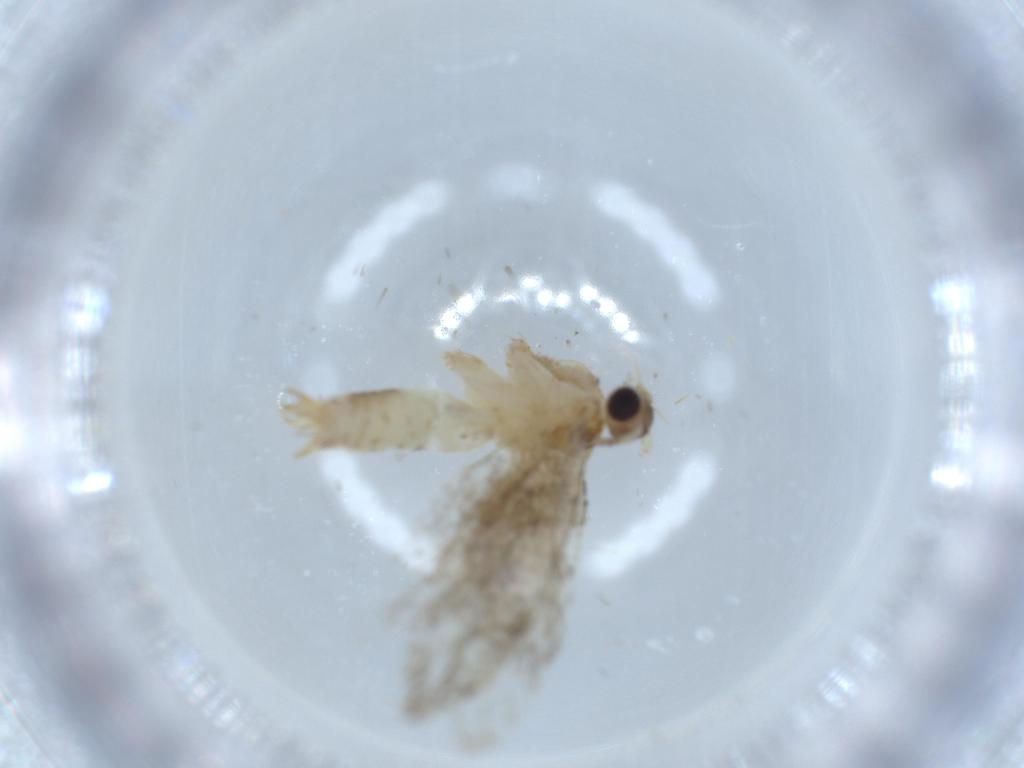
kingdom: Animalia
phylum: Arthropoda
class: Insecta
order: Lepidoptera
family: Tineidae
